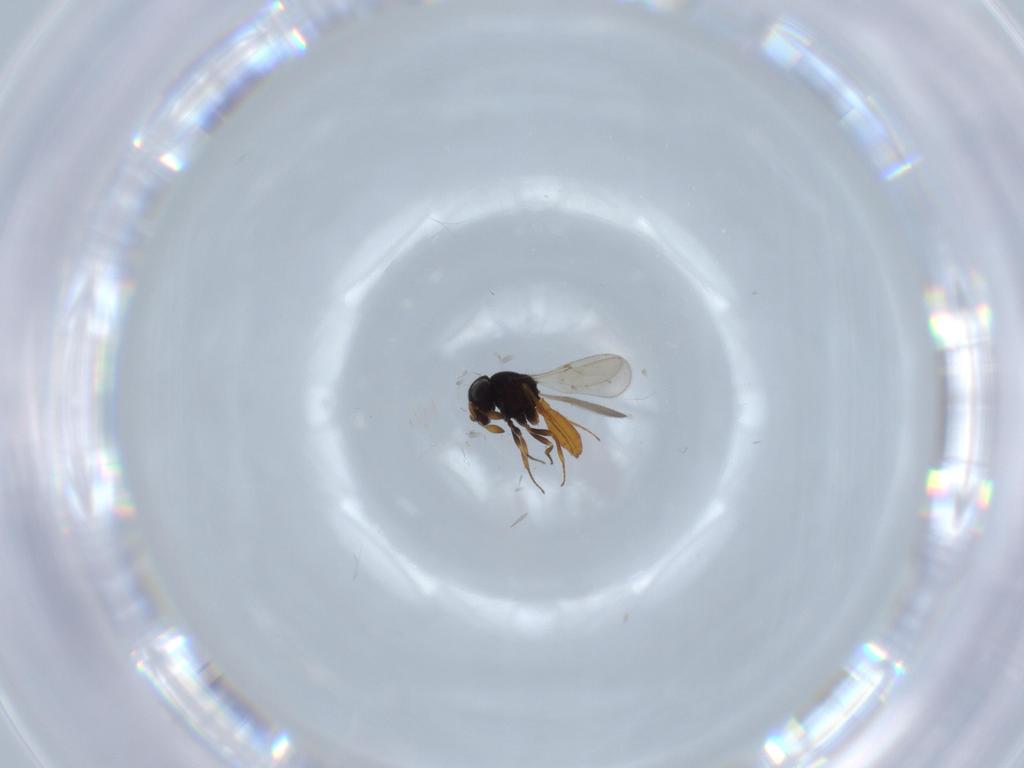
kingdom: Animalia
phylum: Arthropoda
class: Insecta
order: Hymenoptera
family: Scelionidae
